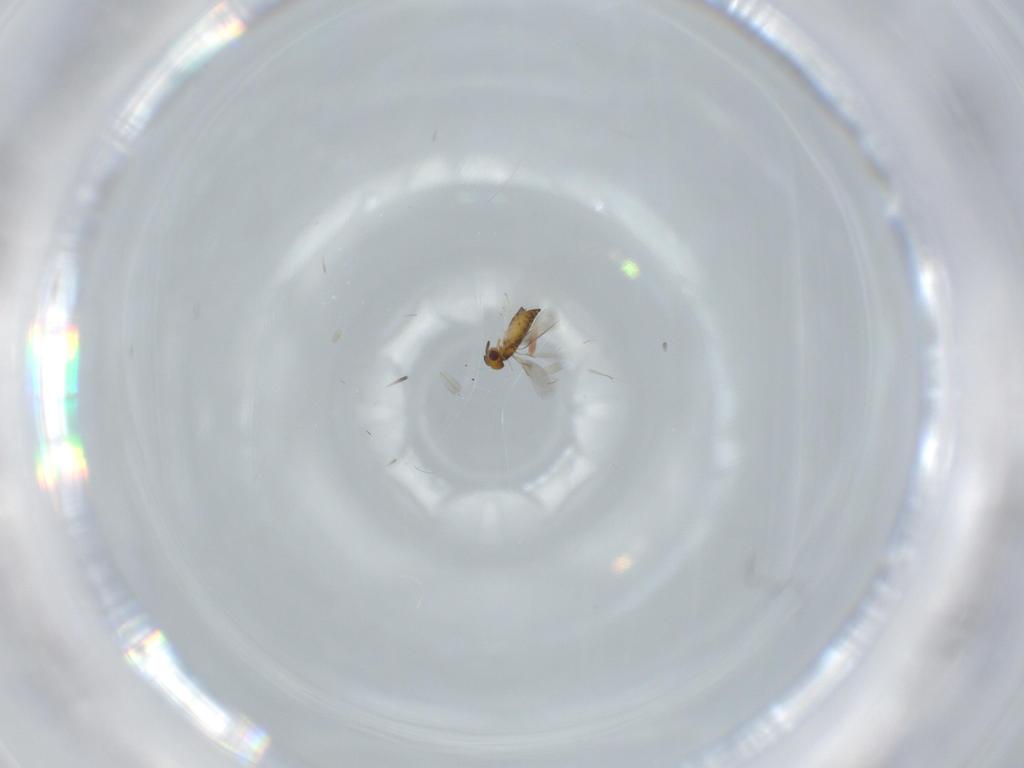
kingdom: Animalia
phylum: Arthropoda
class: Insecta
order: Hymenoptera
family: Signiphoridae
